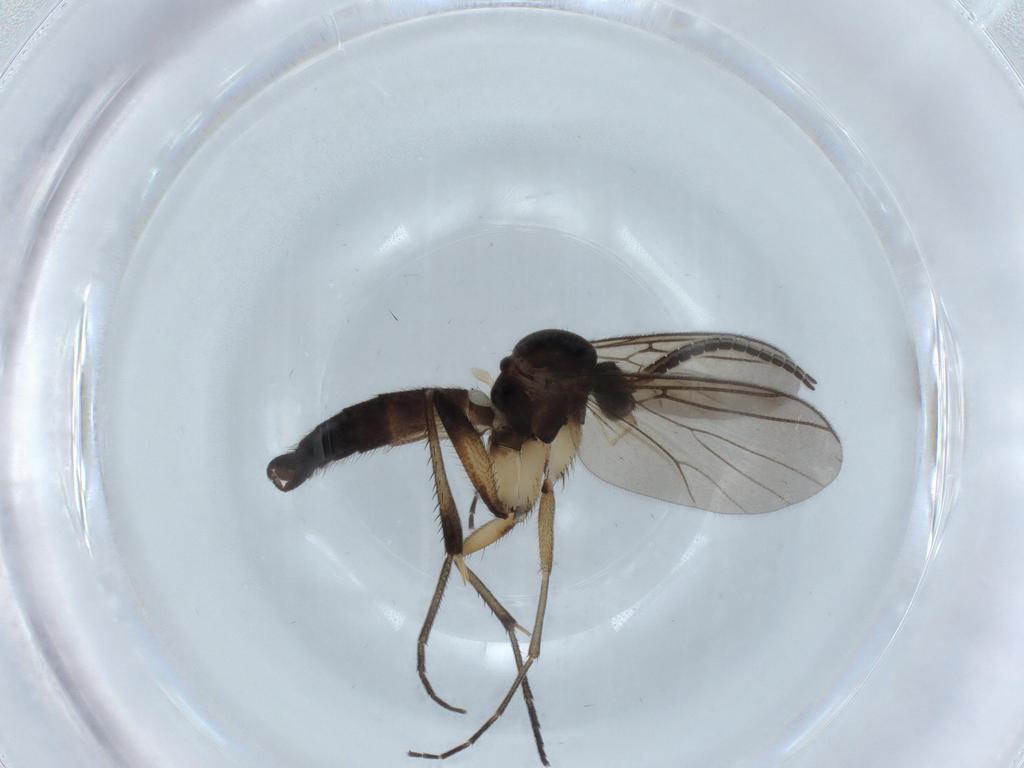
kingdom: Animalia
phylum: Arthropoda
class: Insecta
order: Diptera
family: Mycetophilidae
